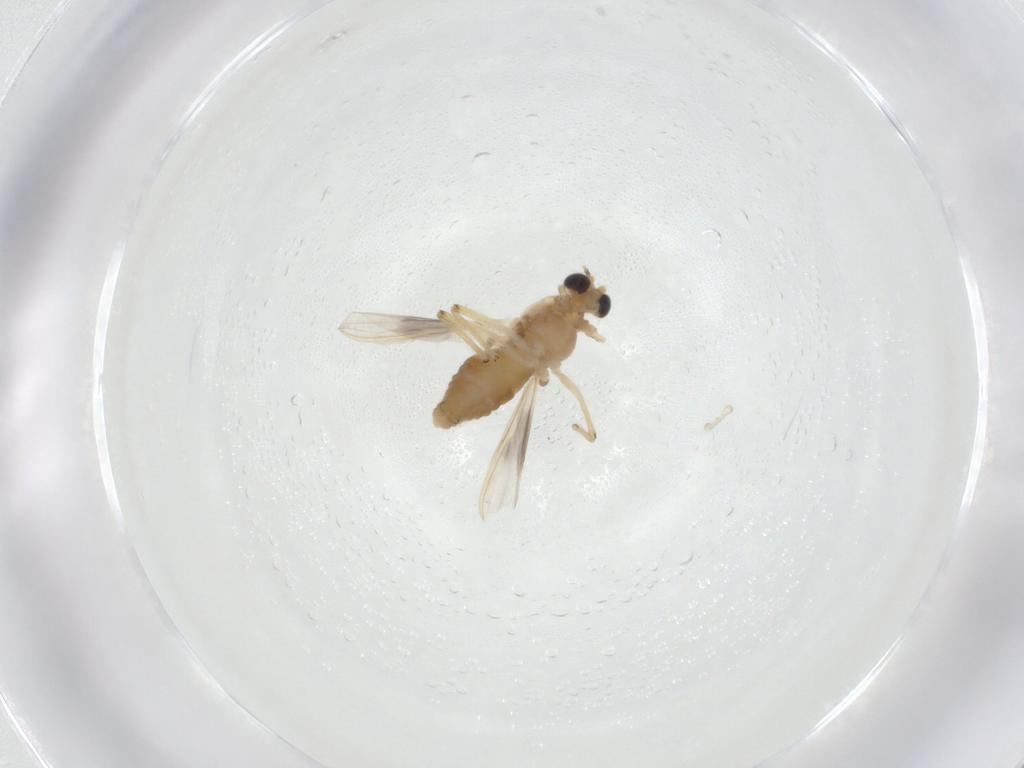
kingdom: Animalia
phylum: Arthropoda
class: Insecta
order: Diptera
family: Chironomidae
